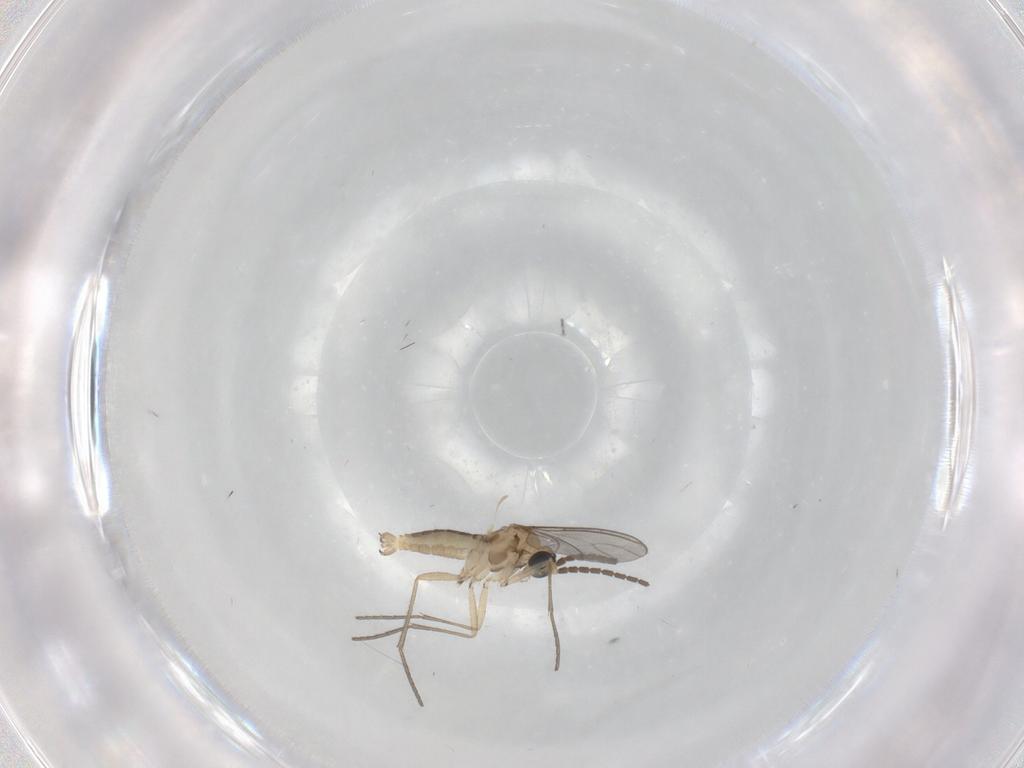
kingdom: Animalia
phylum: Arthropoda
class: Insecta
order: Diptera
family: Sciaridae
